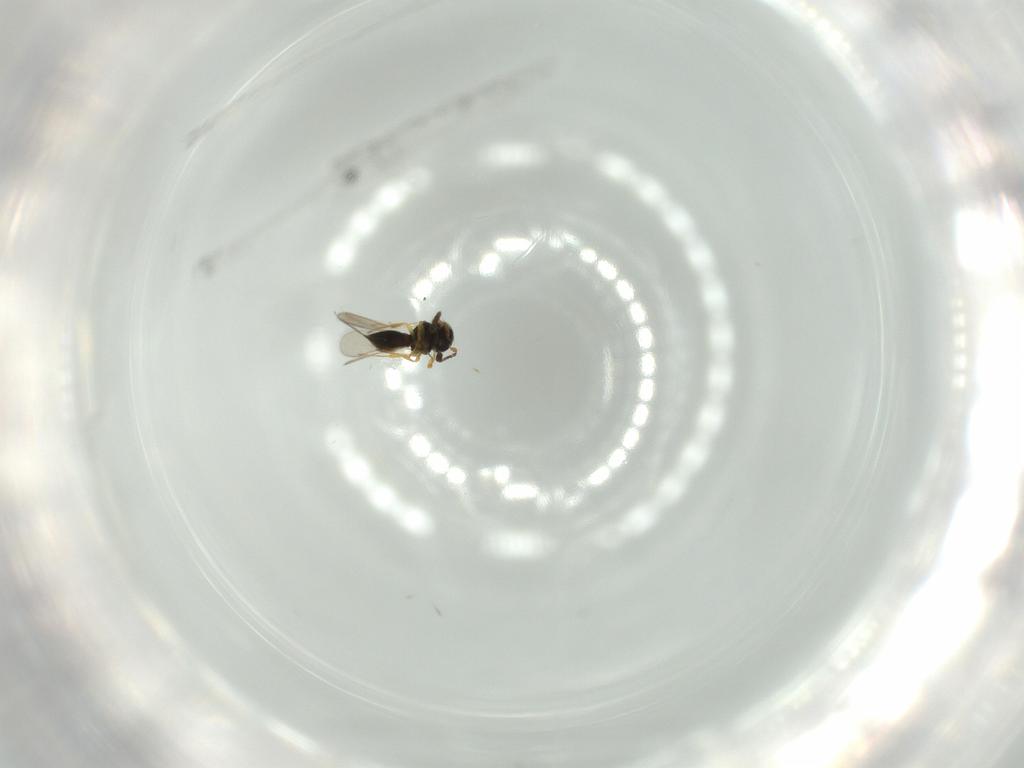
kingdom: Animalia
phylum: Arthropoda
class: Insecta
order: Hymenoptera
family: Scelionidae
